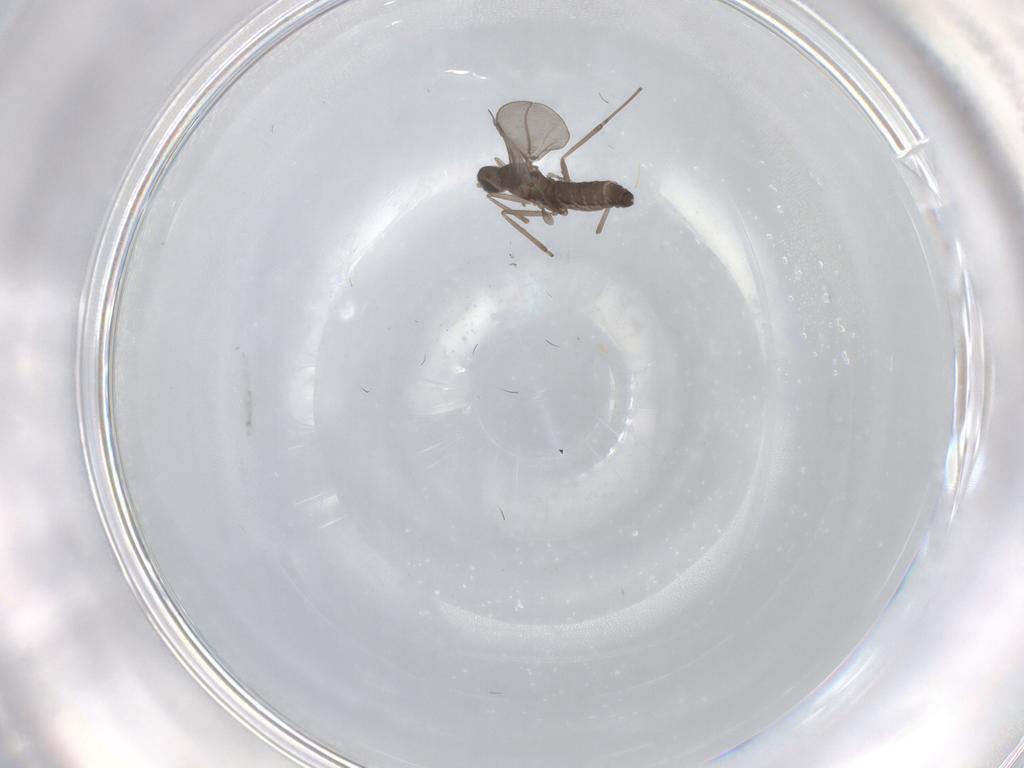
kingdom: Animalia
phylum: Arthropoda
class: Insecta
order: Diptera
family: Cecidomyiidae
